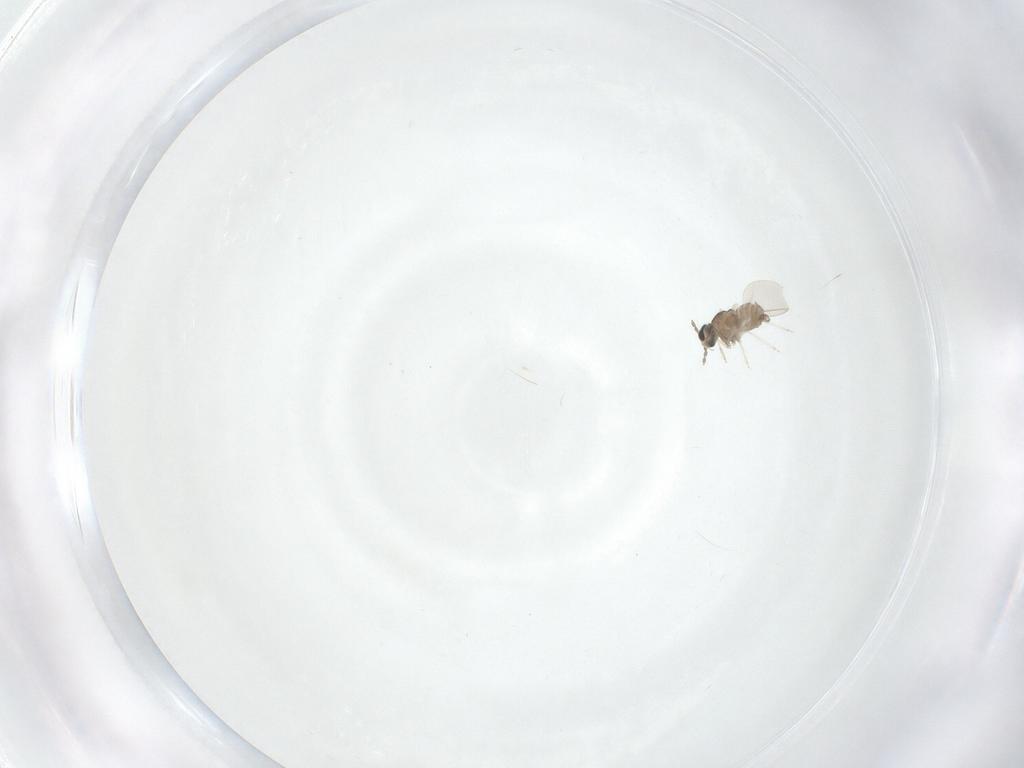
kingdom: Animalia
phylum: Arthropoda
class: Insecta
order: Diptera
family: Cecidomyiidae
